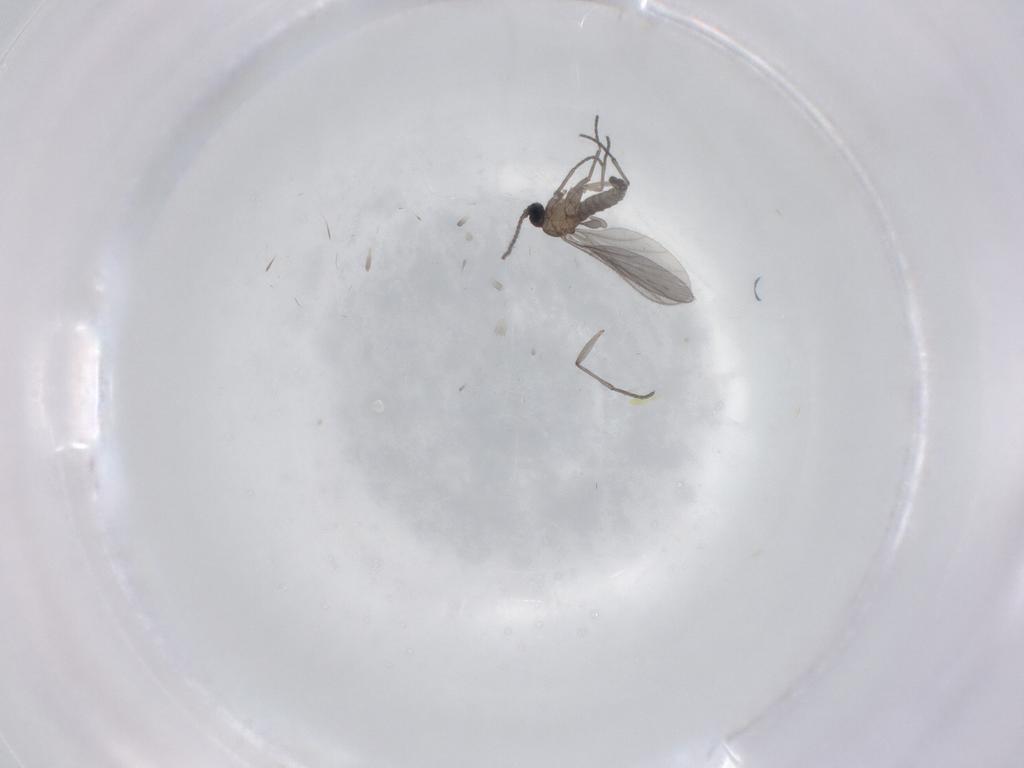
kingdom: Animalia
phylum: Arthropoda
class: Insecta
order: Diptera
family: Sciaridae
